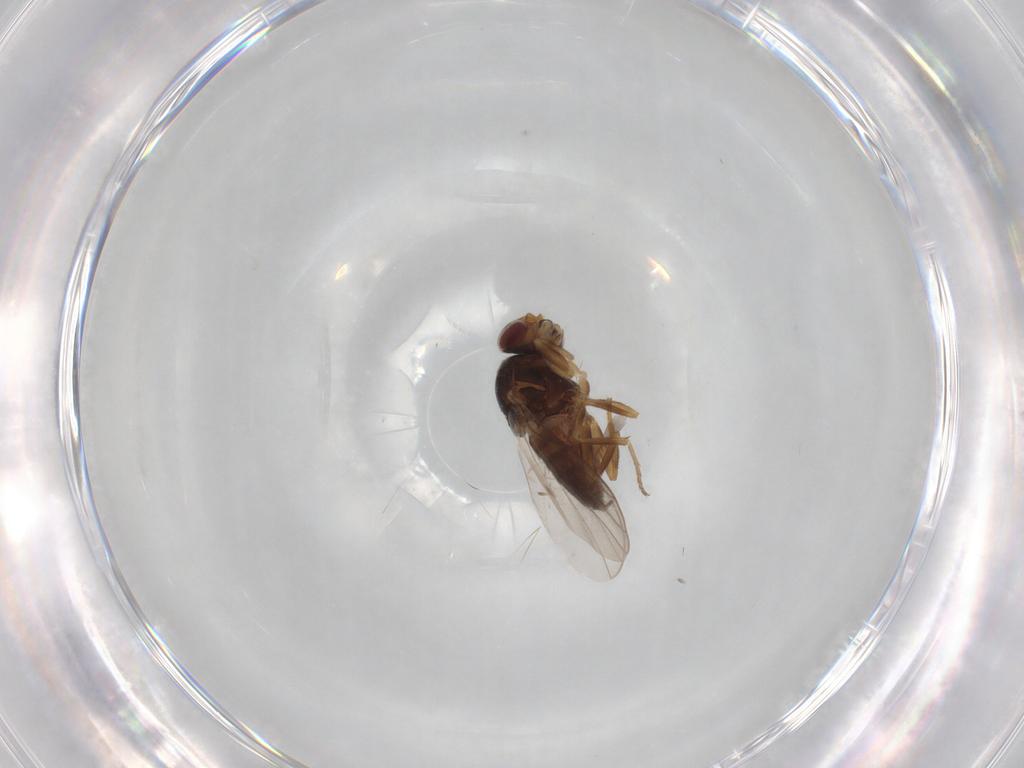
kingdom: Animalia
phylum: Arthropoda
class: Insecta
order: Diptera
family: Chloropidae
